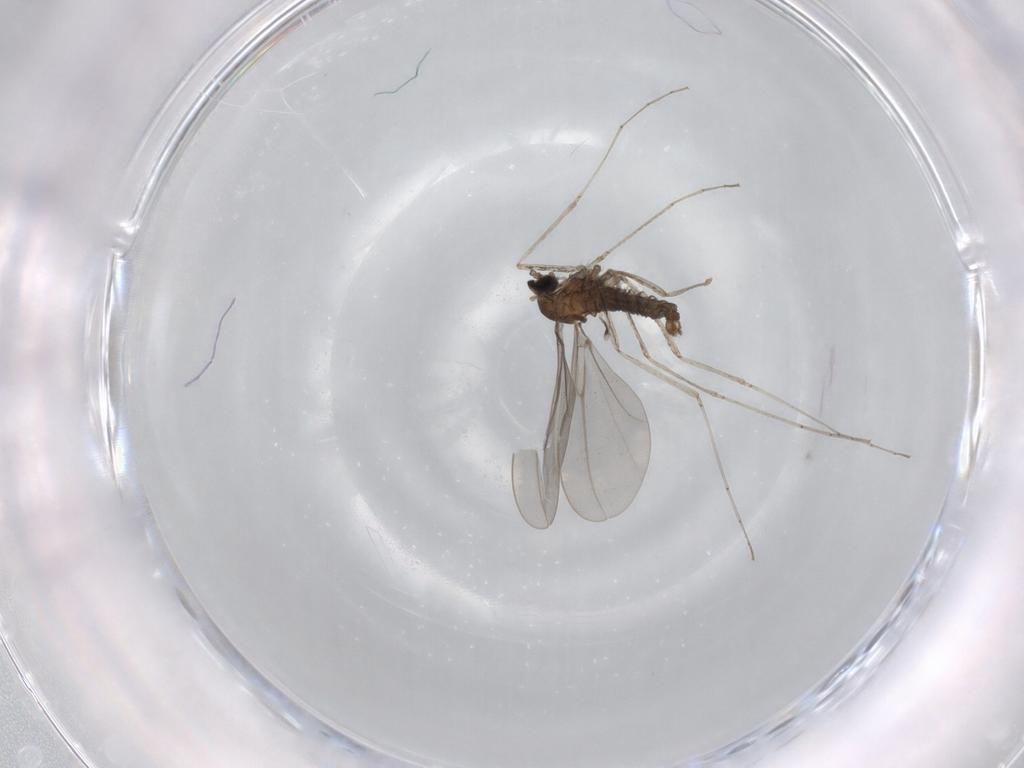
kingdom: Animalia
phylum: Arthropoda
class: Insecta
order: Diptera
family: Cecidomyiidae
